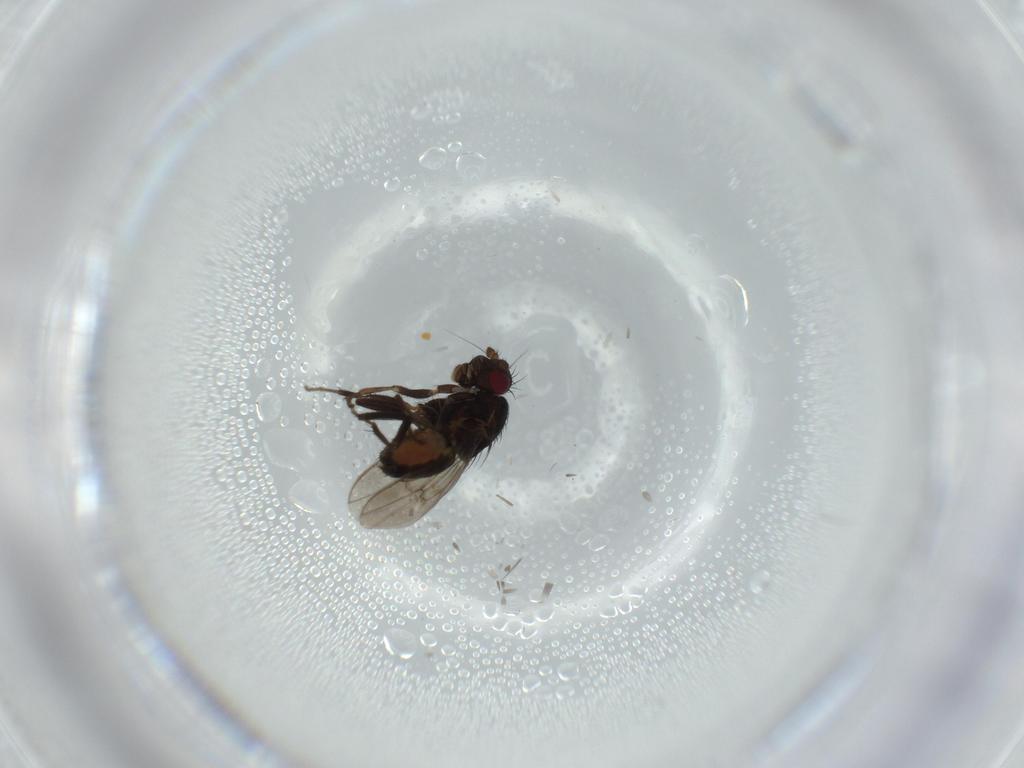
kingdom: Animalia
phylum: Arthropoda
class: Insecta
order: Diptera
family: Sphaeroceridae
